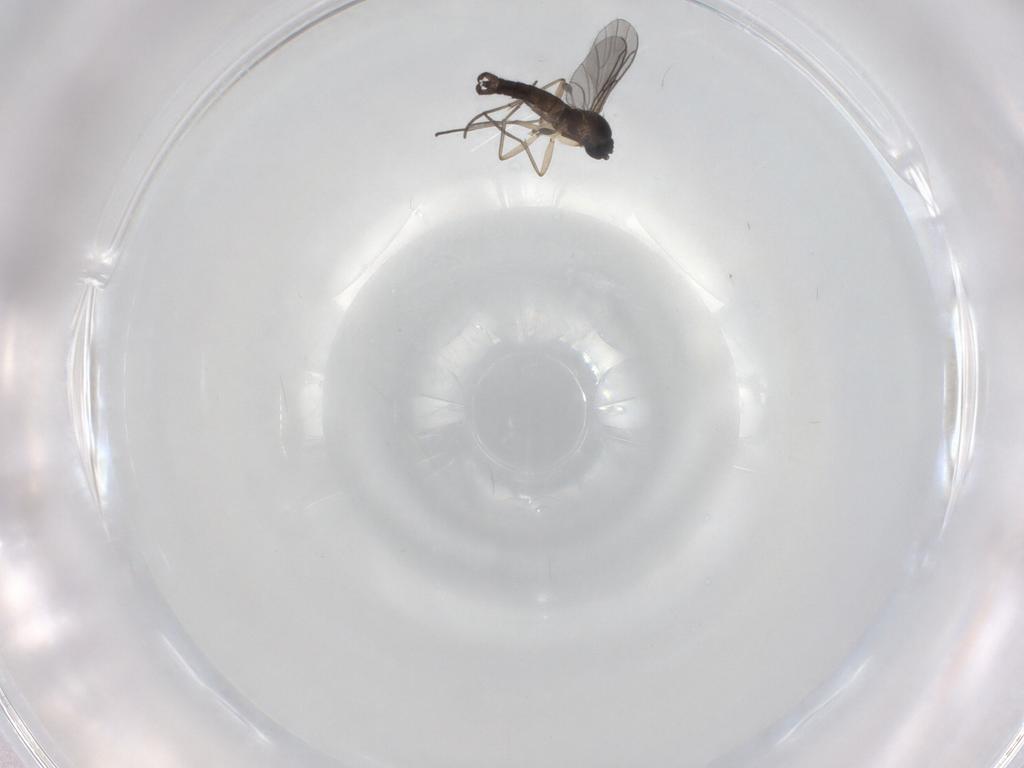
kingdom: Animalia
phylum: Arthropoda
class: Insecta
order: Diptera
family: Sciaridae
